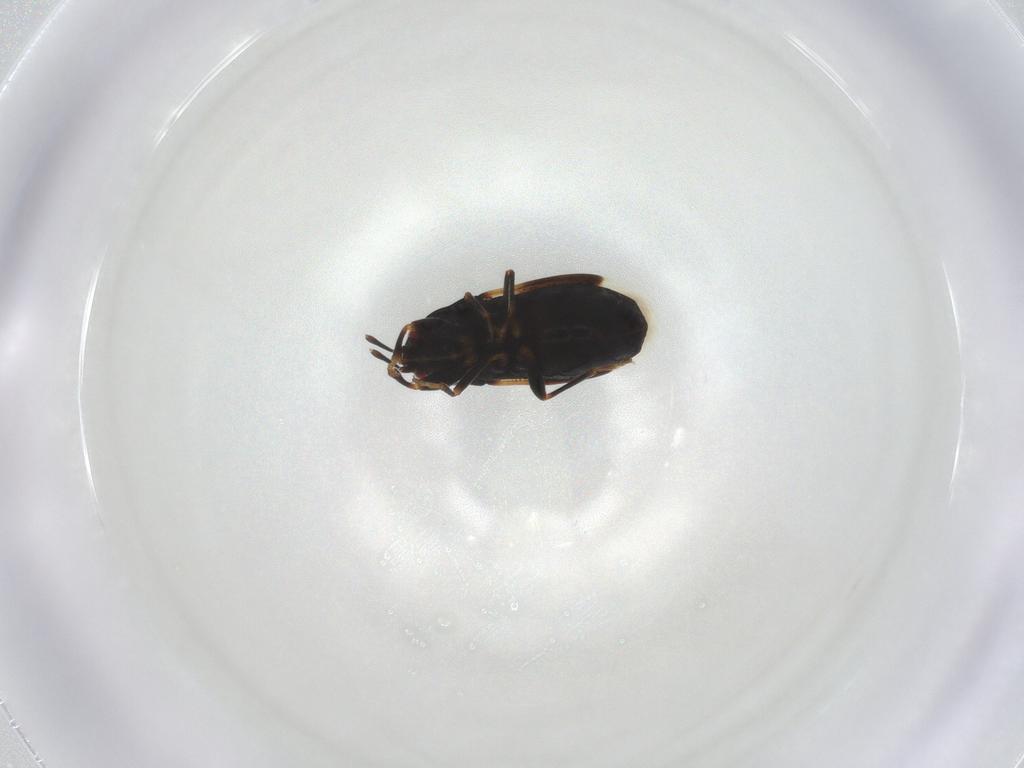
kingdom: Animalia
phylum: Arthropoda
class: Insecta
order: Hemiptera
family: Rhyparochromidae
